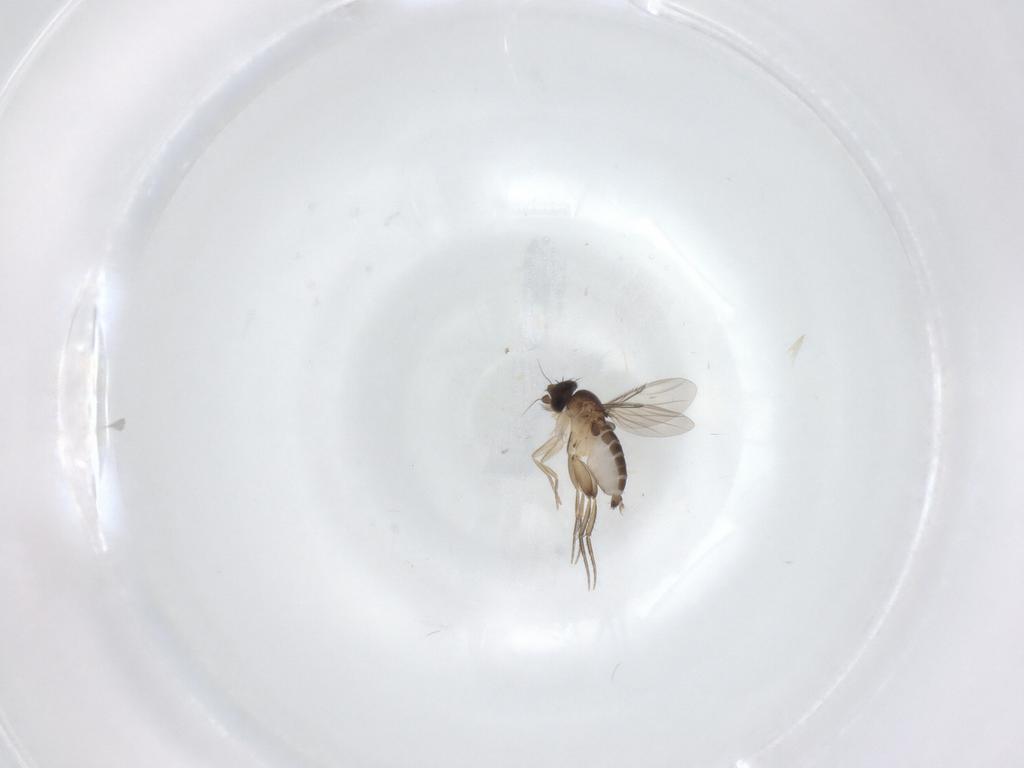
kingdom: Animalia
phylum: Arthropoda
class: Insecta
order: Diptera
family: Phoridae
